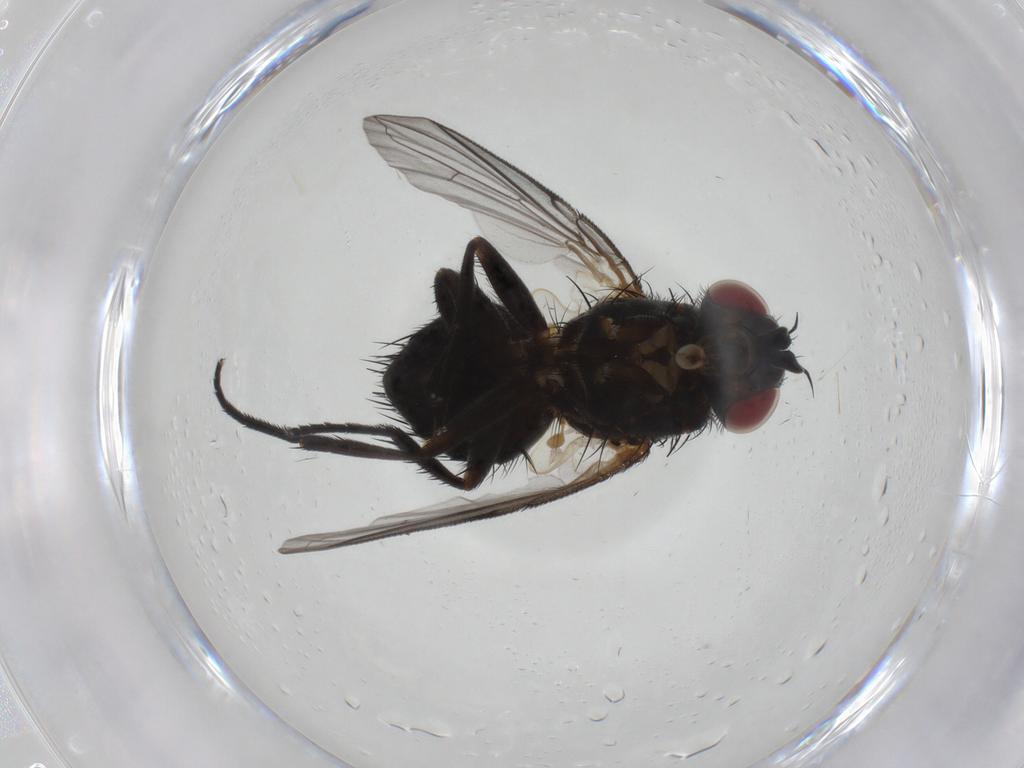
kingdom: Animalia
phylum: Arthropoda
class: Insecta
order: Diptera
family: Tachinidae
